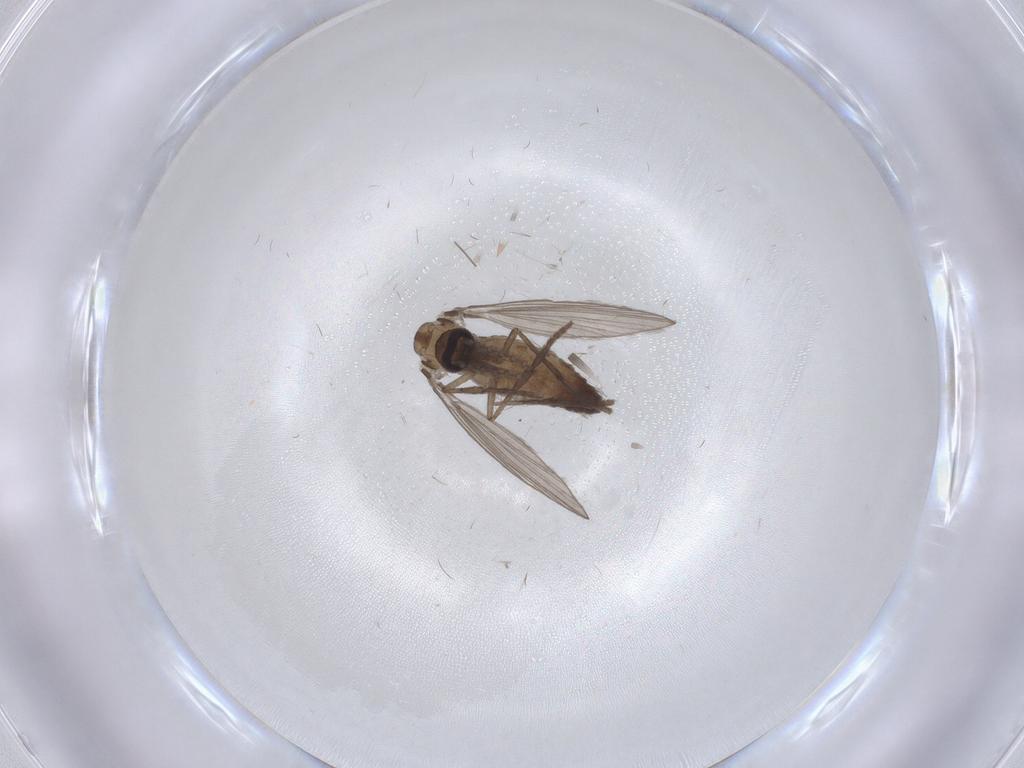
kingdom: Animalia
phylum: Arthropoda
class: Insecta
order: Diptera
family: Psychodidae
